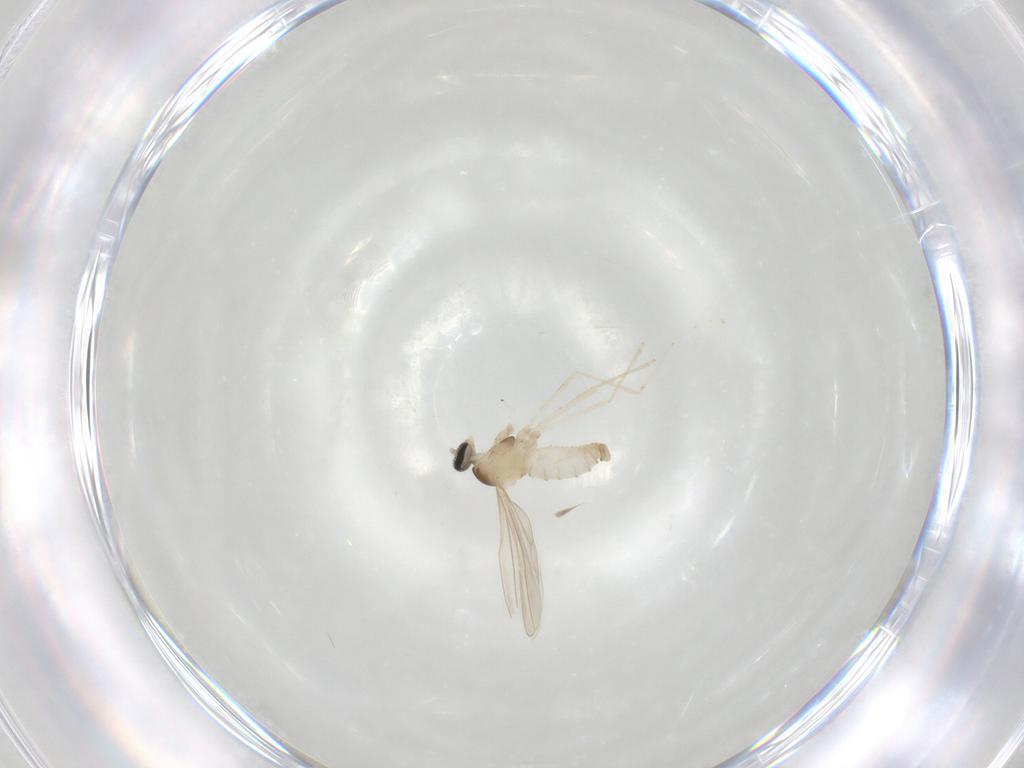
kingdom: Animalia
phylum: Arthropoda
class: Insecta
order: Diptera
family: Cecidomyiidae
